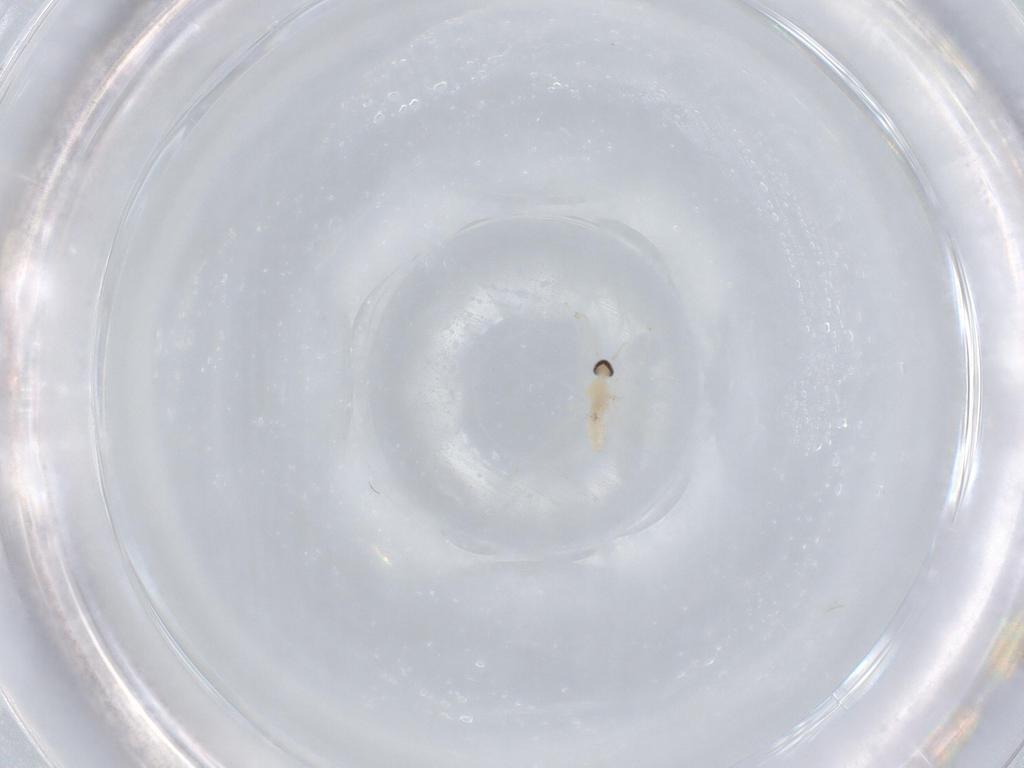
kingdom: Animalia
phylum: Arthropoda
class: Insecta
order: Diptera
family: Cecidomyiidae
